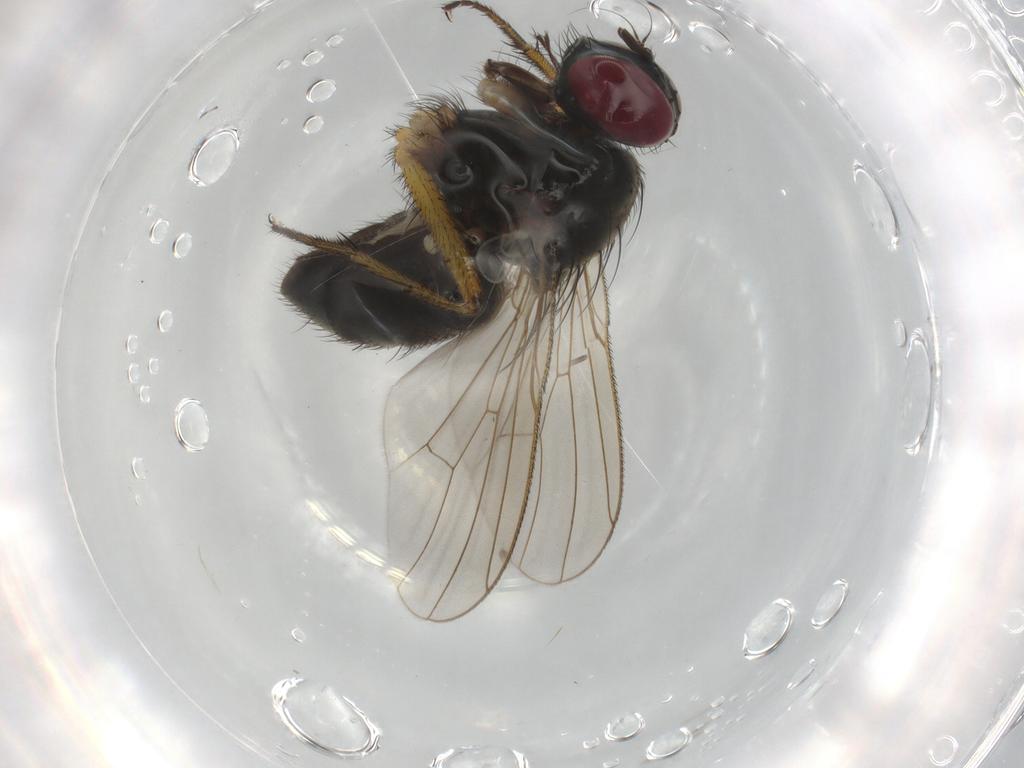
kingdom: Animalia
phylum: Arthropoda
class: Insecta
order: Diptera
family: Muscidae
